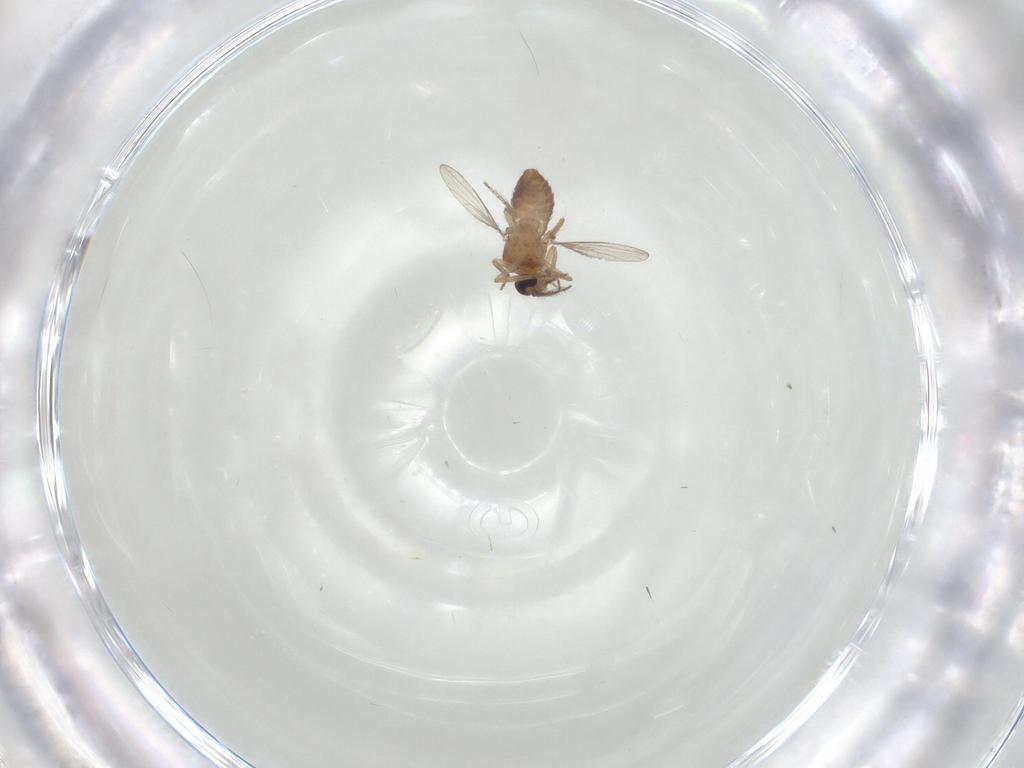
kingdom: Animalia
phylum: Arthropoda
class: Insecta
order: Diptera
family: Ceratopogonidae
